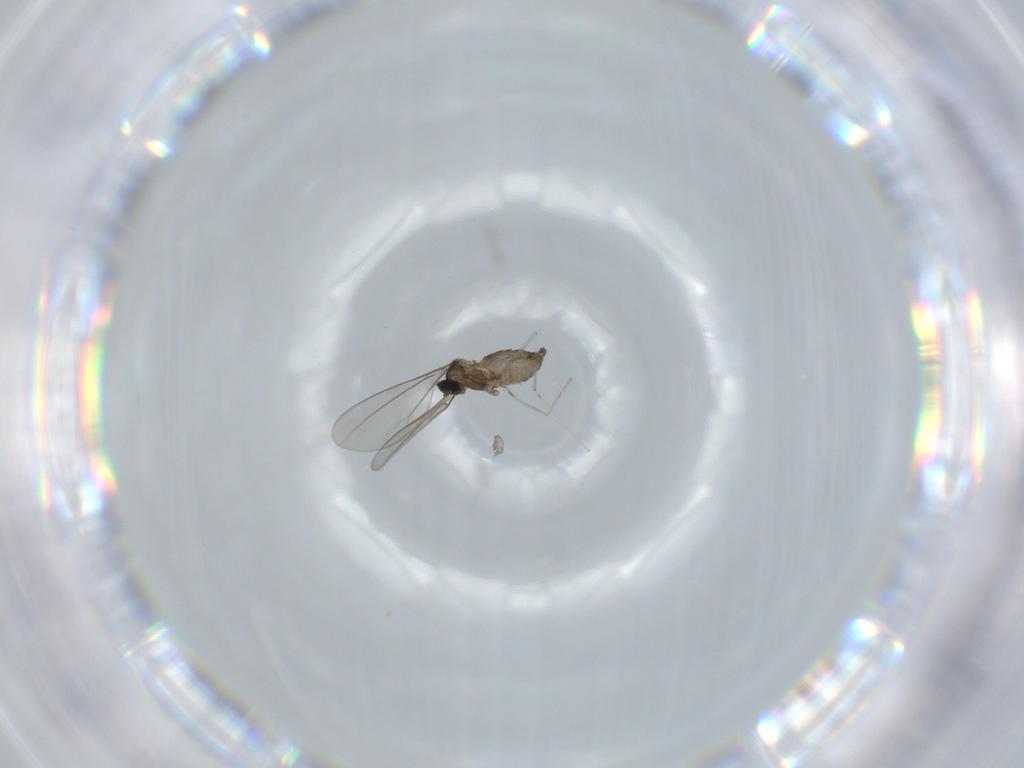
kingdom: Animalia
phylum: Arthropoda
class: Insecta
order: Diptera
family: Cecidomyiidae
